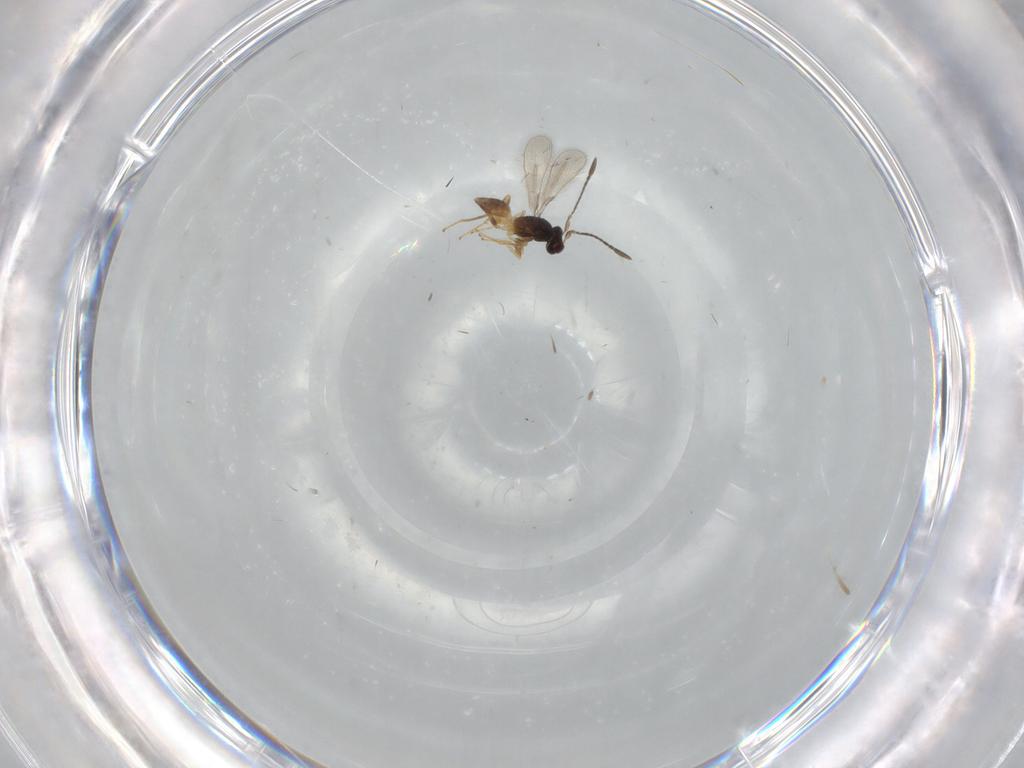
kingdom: Animalia
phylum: Arthropoda
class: Insecta
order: Hymenoptera
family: Mymaridae
